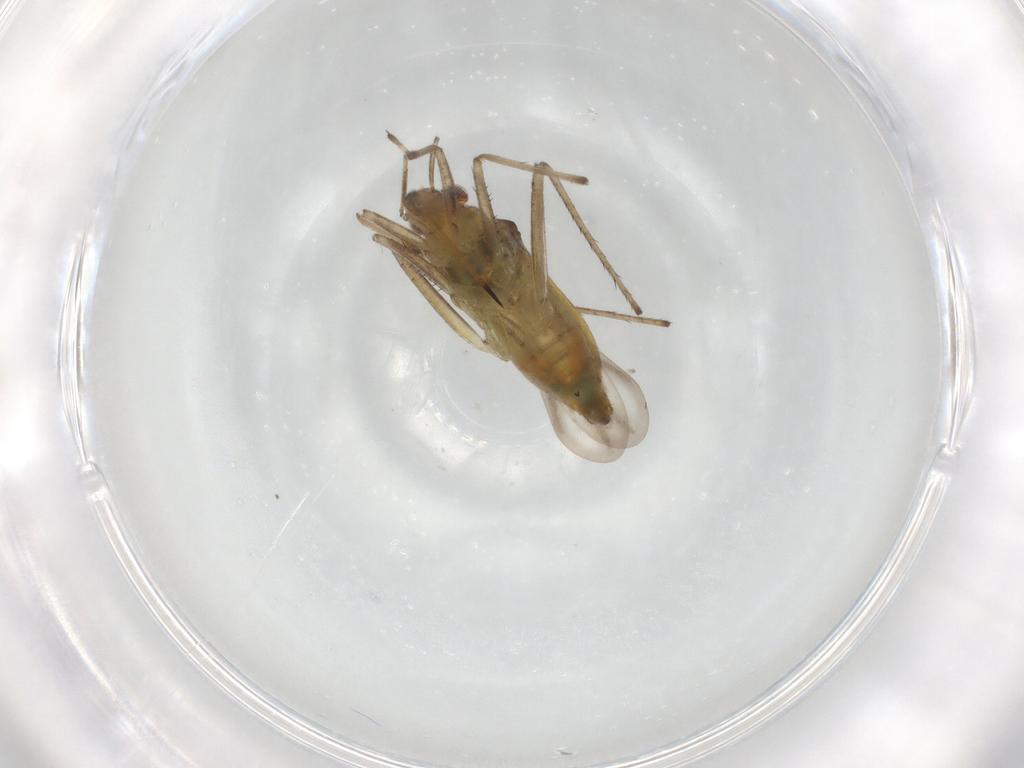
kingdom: Animalia
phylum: Arthropoda
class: Insecta
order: Hemiptera
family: Mesoveliidae
